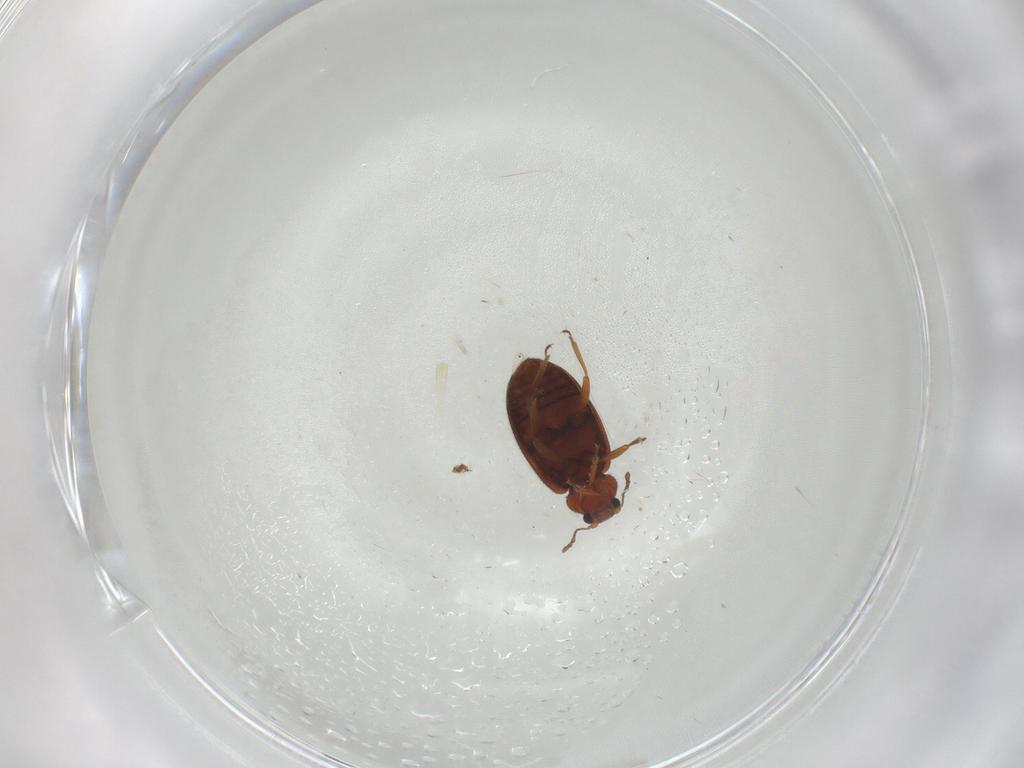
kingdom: Animalia
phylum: Arthropoda
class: Insecta
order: Coleoptera
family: Latridiidae
